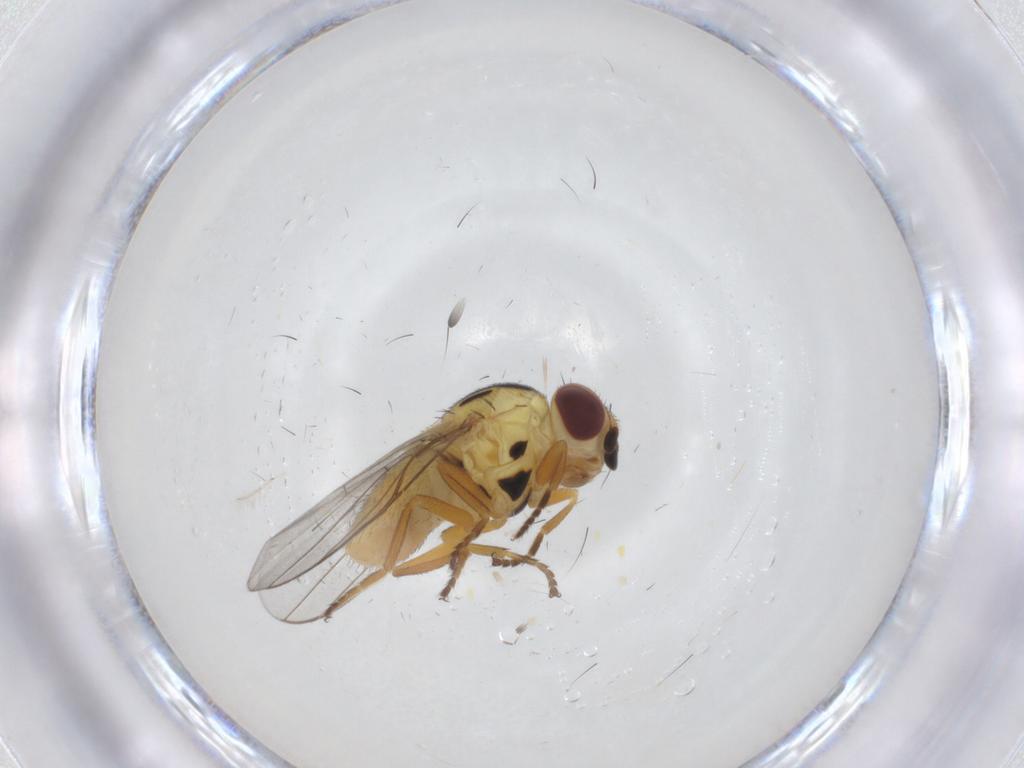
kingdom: Animalia
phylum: Arthropoda
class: Insecta
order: Diptera
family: Chloropidae
